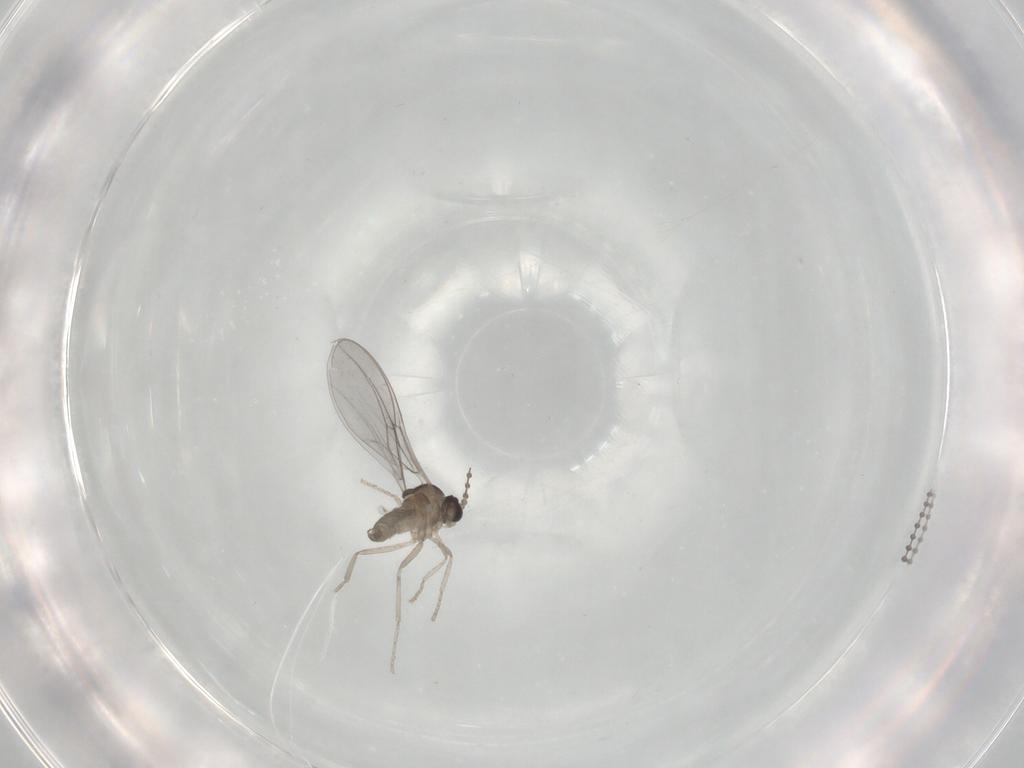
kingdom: Animalia
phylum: Arthropoda
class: Insecta
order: Diptera
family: Cecidomyiidae
